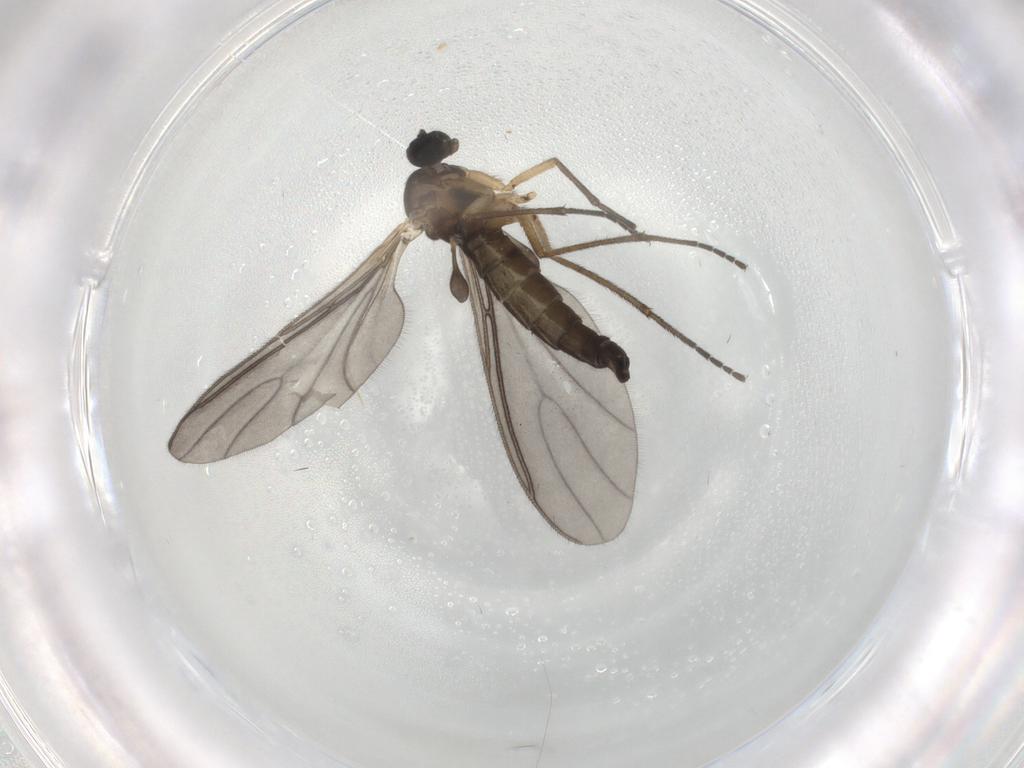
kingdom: Animalia
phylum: Arthropoda
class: Insecta
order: Diptera
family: Sciaridae
